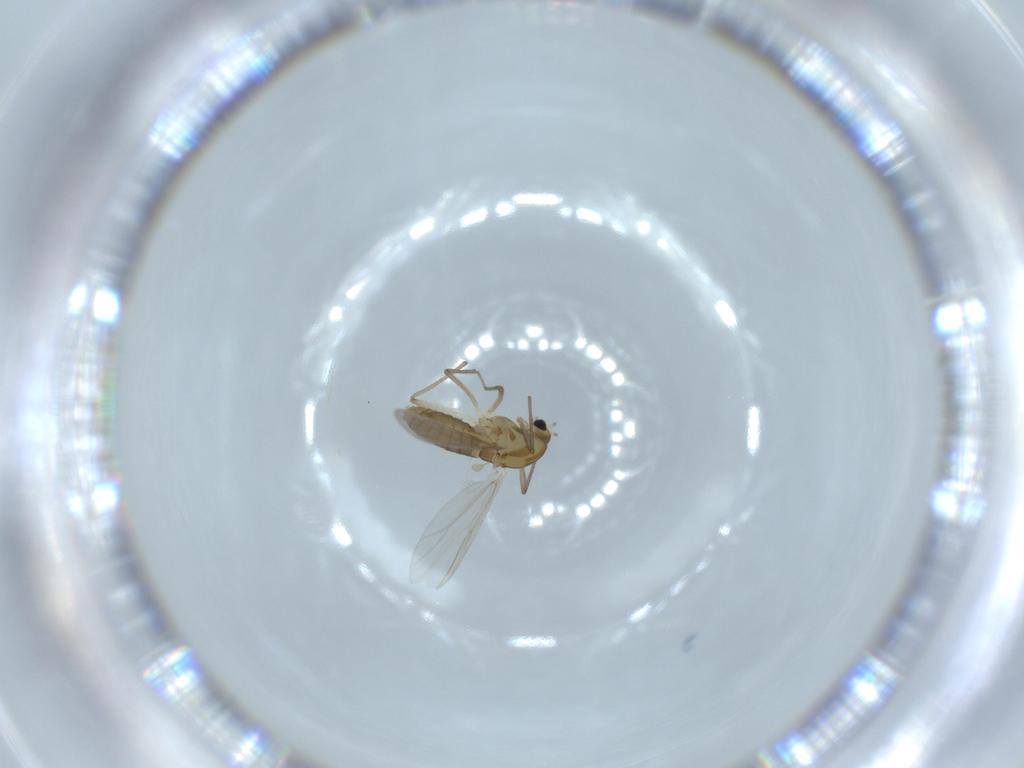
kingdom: Animalia
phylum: Arthropoda
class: Insecta
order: Diptera
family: Chironomidae
